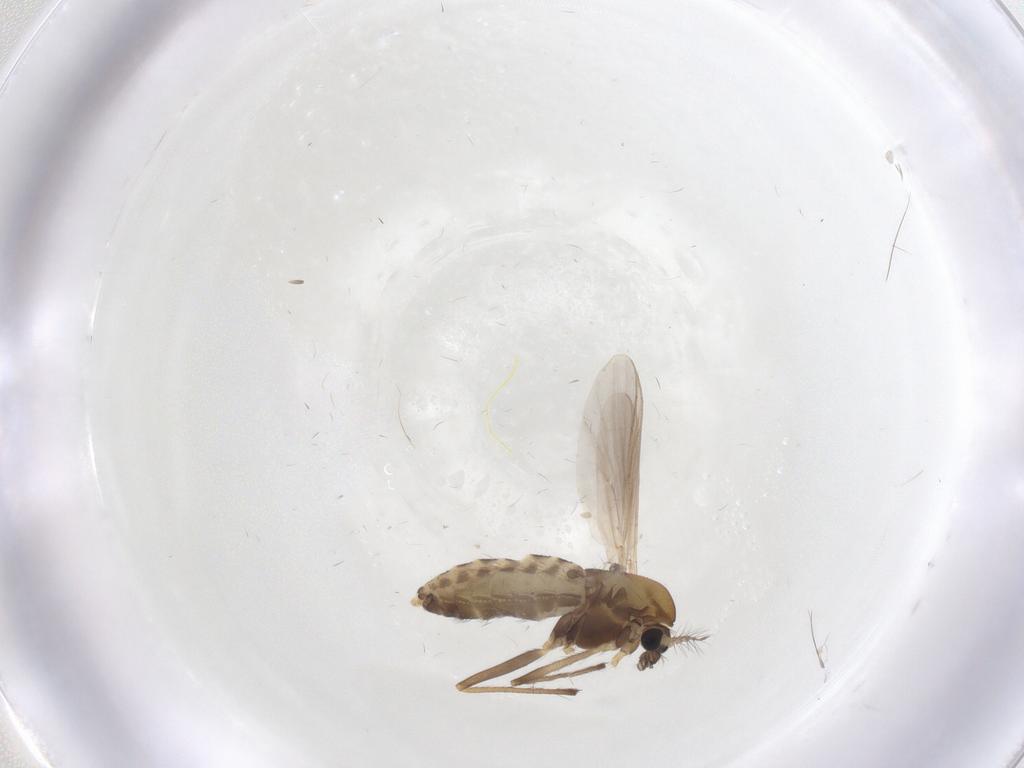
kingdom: Animalia
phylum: Arthropoda
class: Insecta
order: Diptera
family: Chironomidae
